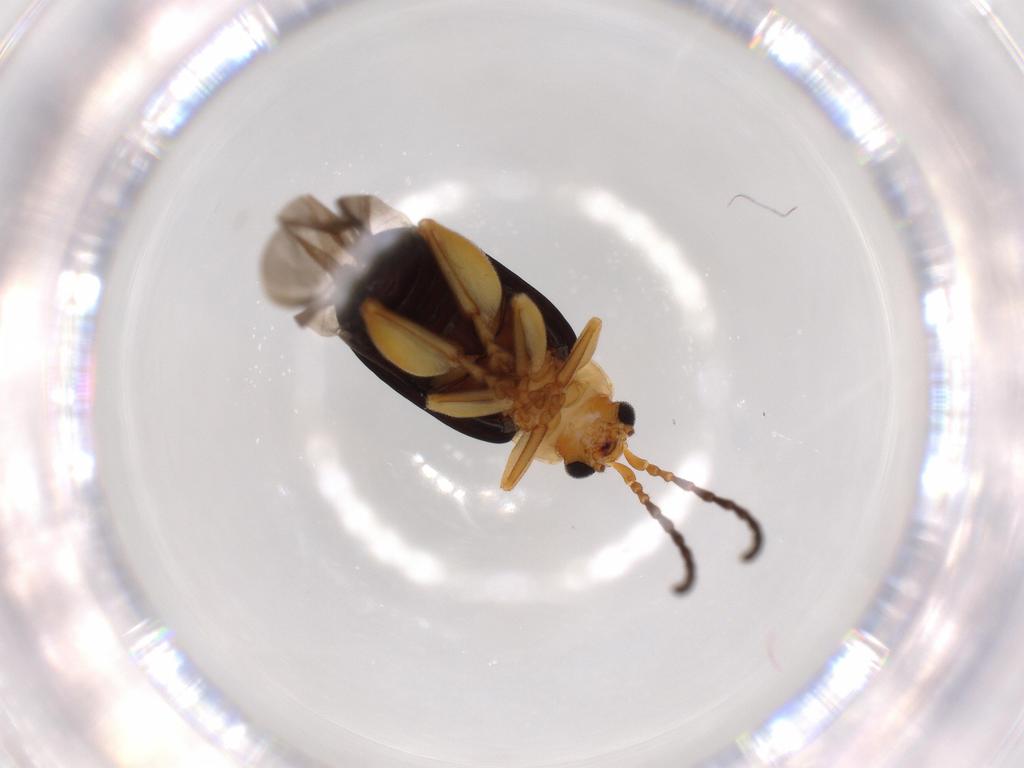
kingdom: Animalia
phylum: Arthropoda
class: Insecta
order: Coleoptera
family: Chrysomelidae
